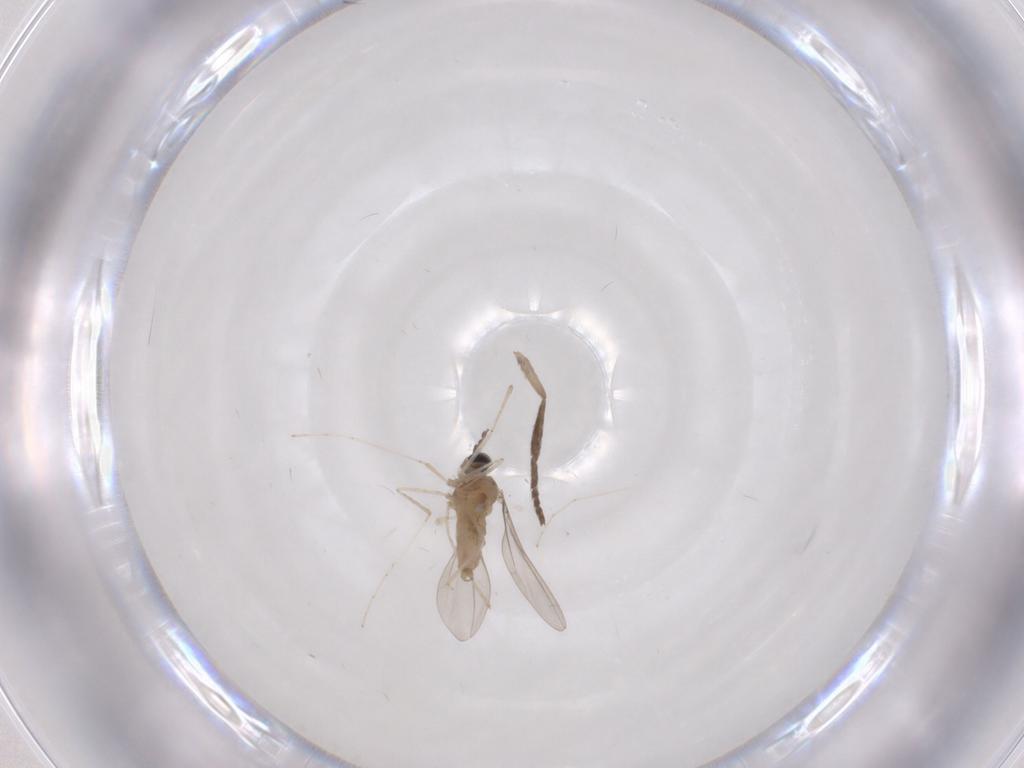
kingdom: Animalia
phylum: Arthropoda
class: Insecta
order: Diptera
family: Cecidomyiidae
